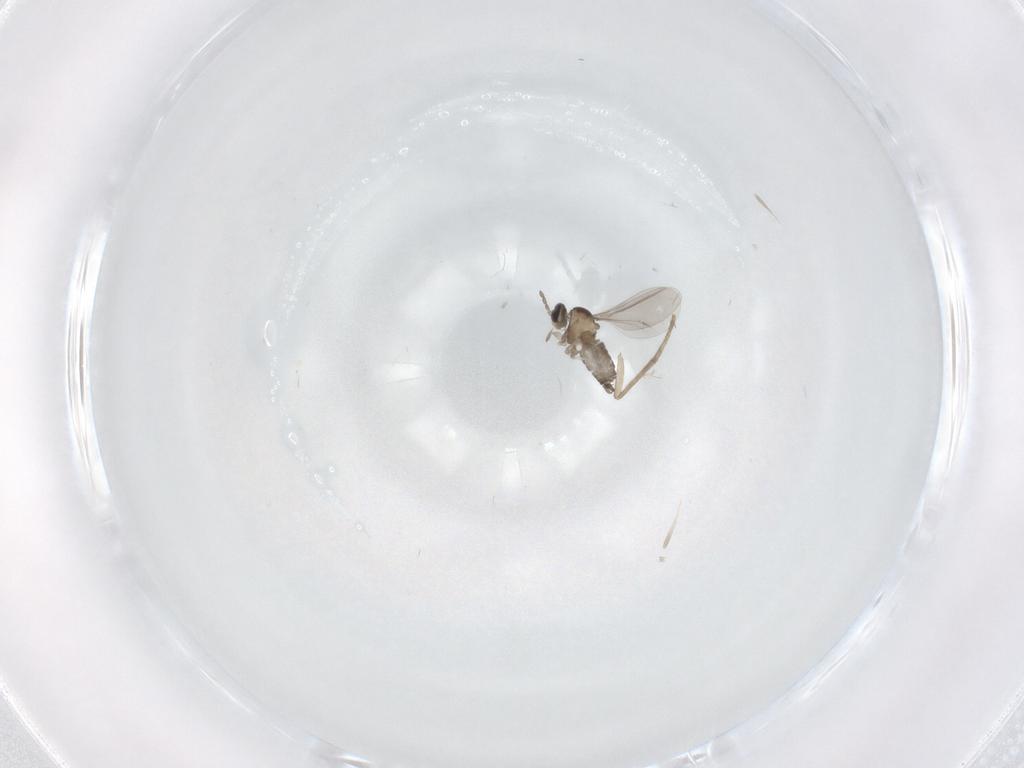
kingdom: Animalia
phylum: Arthropoda
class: Insecta
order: Diptera
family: Cecidomyiidae
